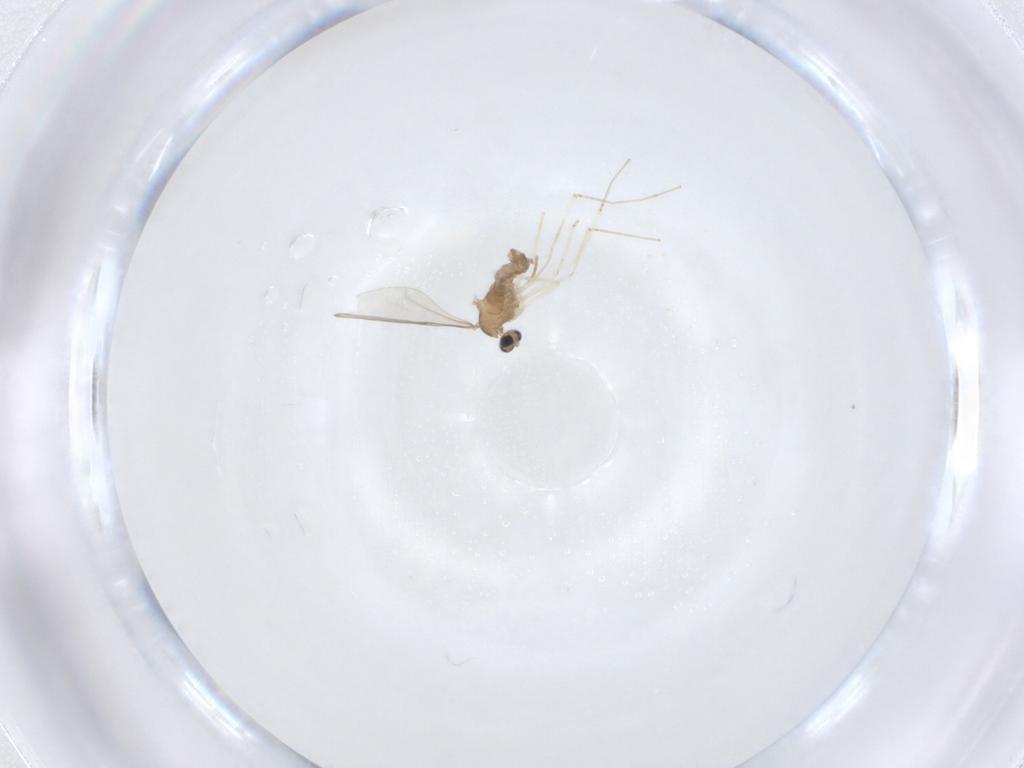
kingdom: Animalia
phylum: Arthropoda
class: Insecta
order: Diptera
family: Ceratopogonidae
